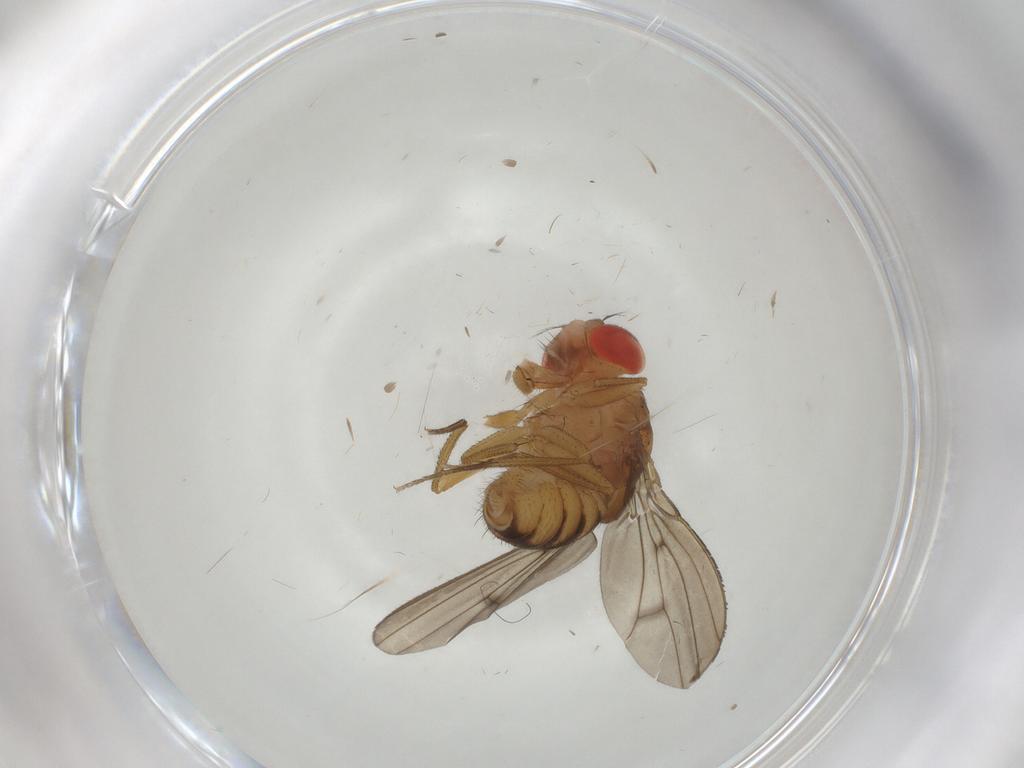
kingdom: Animalia
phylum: Arthropoda
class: Insecta
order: Diptera
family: Drosophilidae
